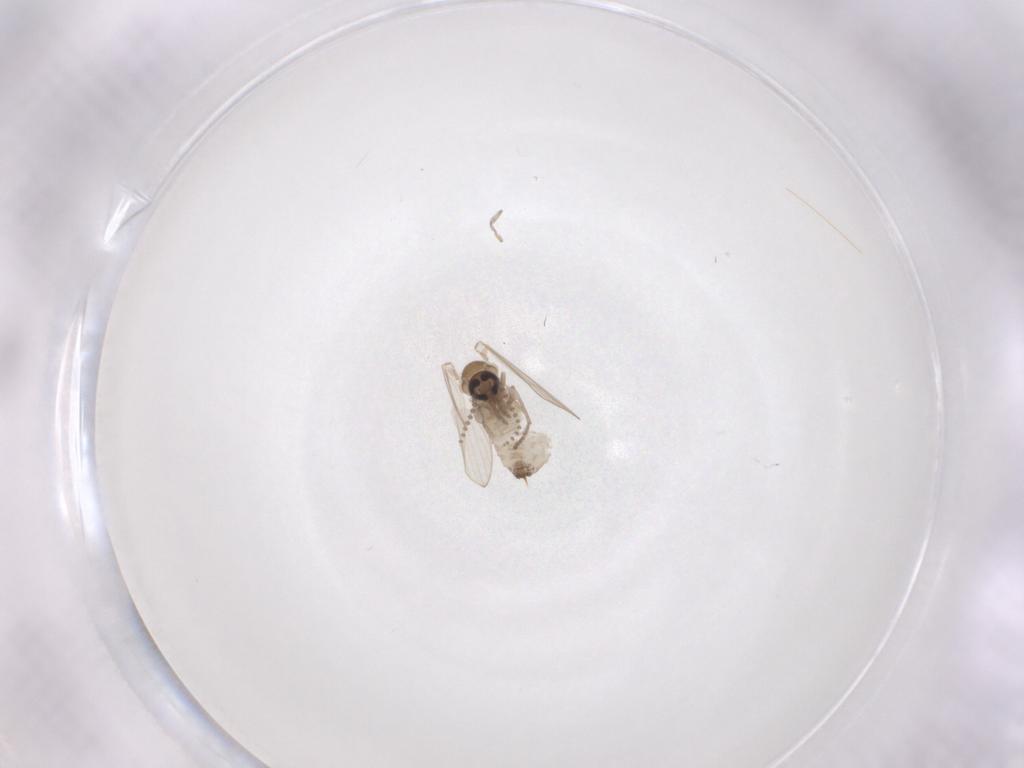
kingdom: Animalia
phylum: Arthropoda
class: Insecta
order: Diptera
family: Psychodidae
